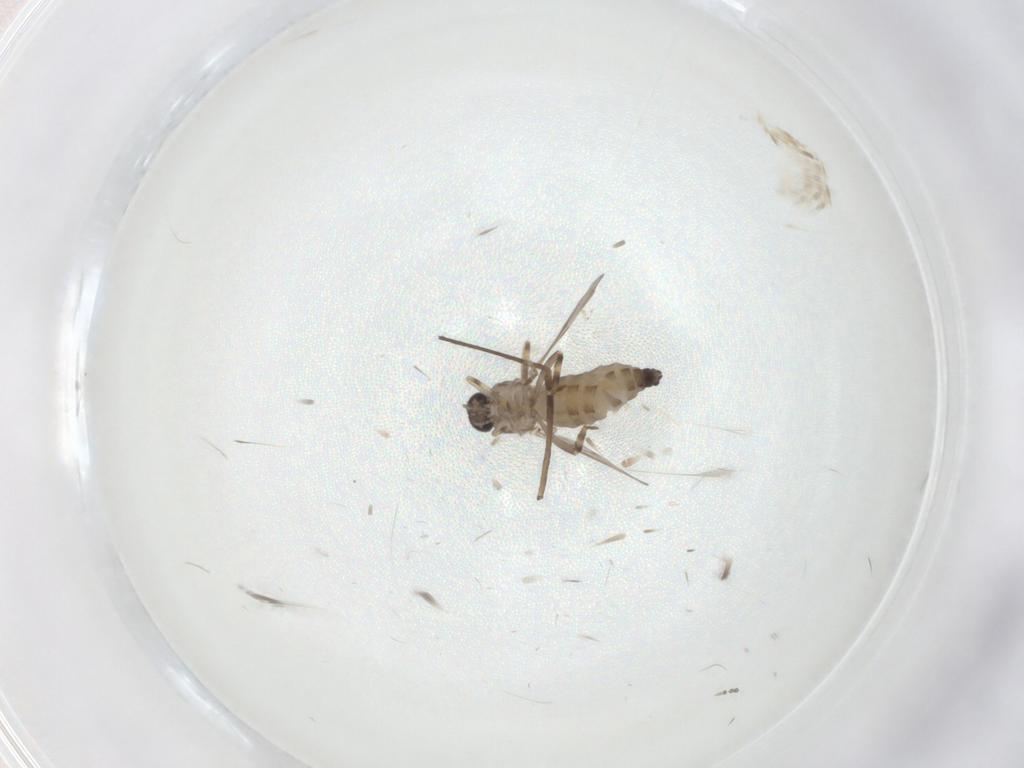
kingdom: Animalia
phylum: Arthropoda
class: Insecta
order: Diptera
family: Ceratopogonidae
